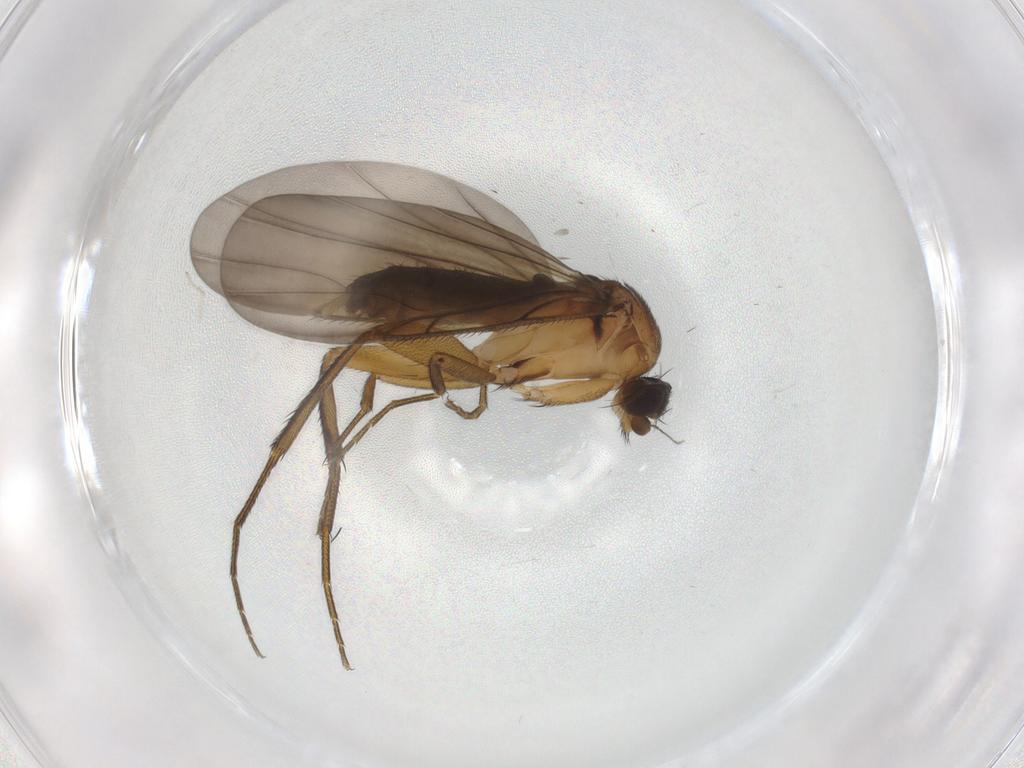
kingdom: Animalia
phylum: Arthropoda
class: Insecta
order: Diptera
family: Phoridae
